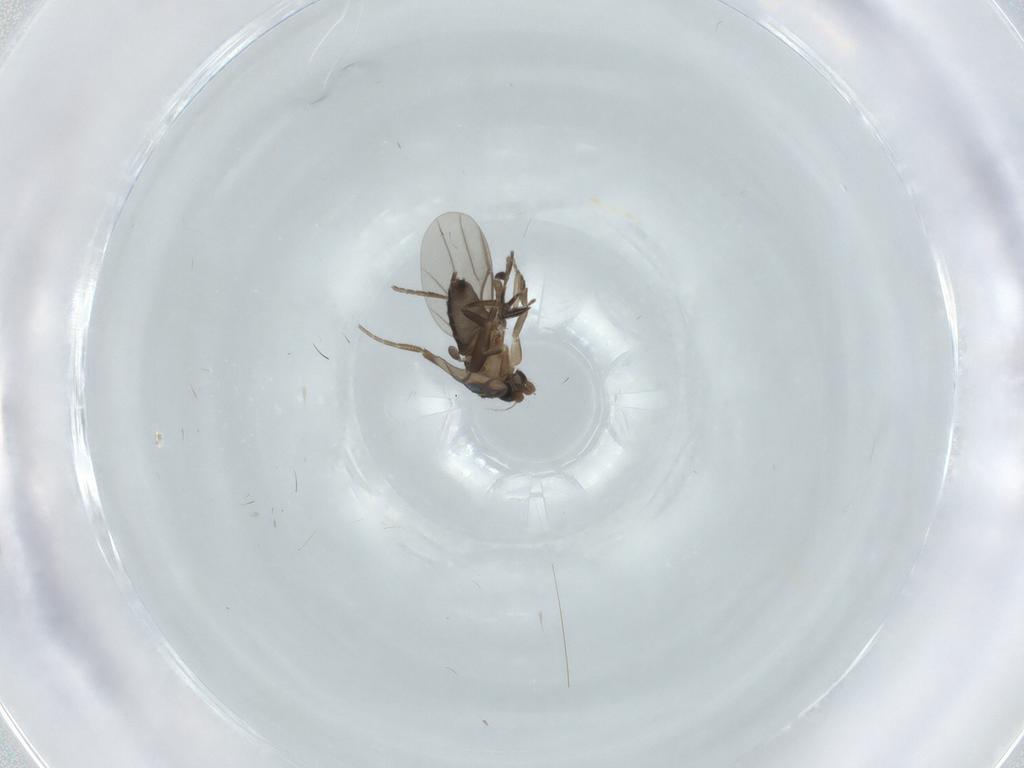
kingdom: Animalia
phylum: Arthropoda
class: Insecta
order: Diptera
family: Phoridae
